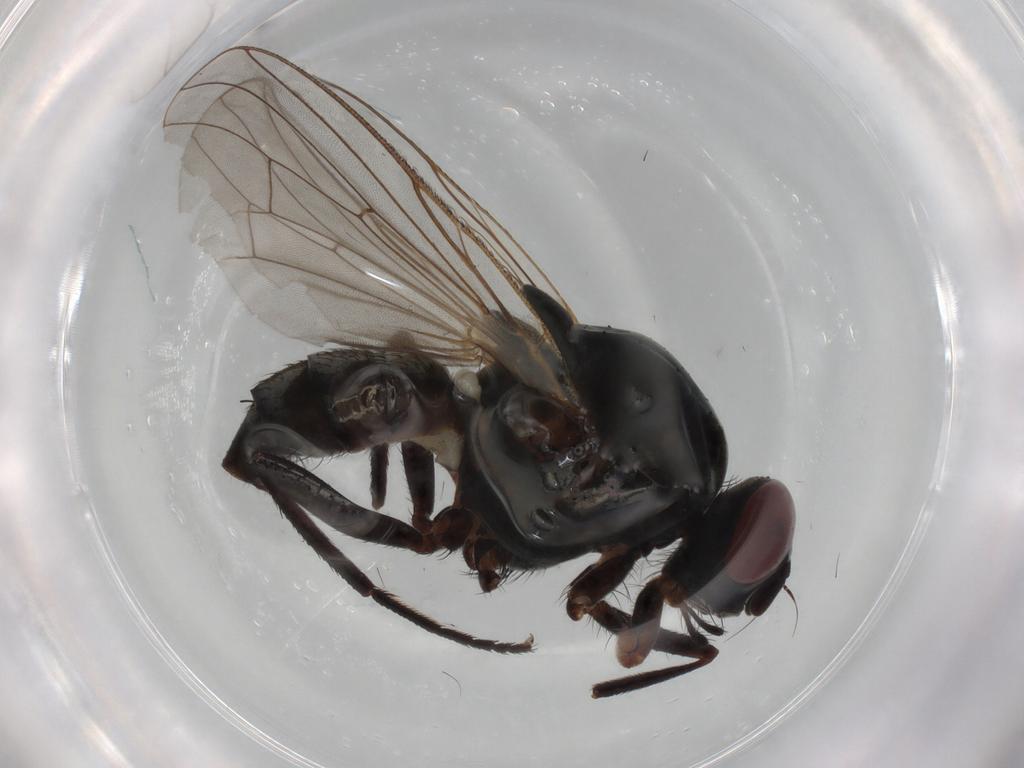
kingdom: Animalia
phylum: Arthropoda
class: Insecta
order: Diptera
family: Anthomyiidae
